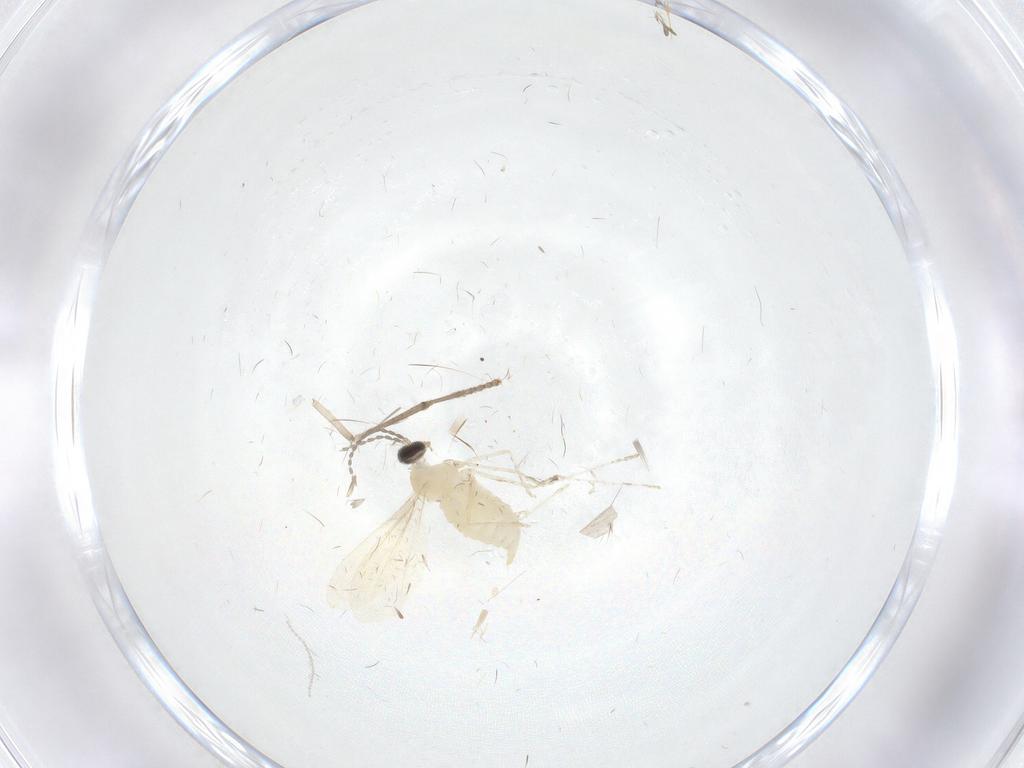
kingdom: Animalia
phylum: Arthropoda
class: Insecta
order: Diptera
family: Cecidomyiidae
